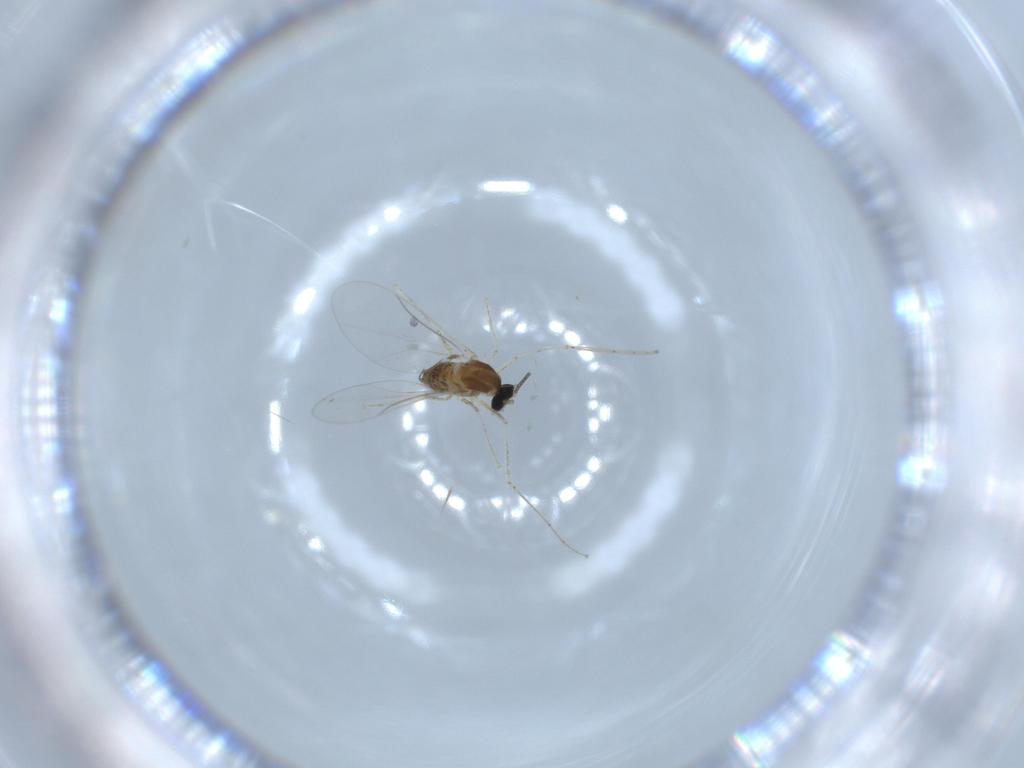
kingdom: Animalia
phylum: Arthropoda
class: Insecta
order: Diptera
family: Cecidomyiidae
